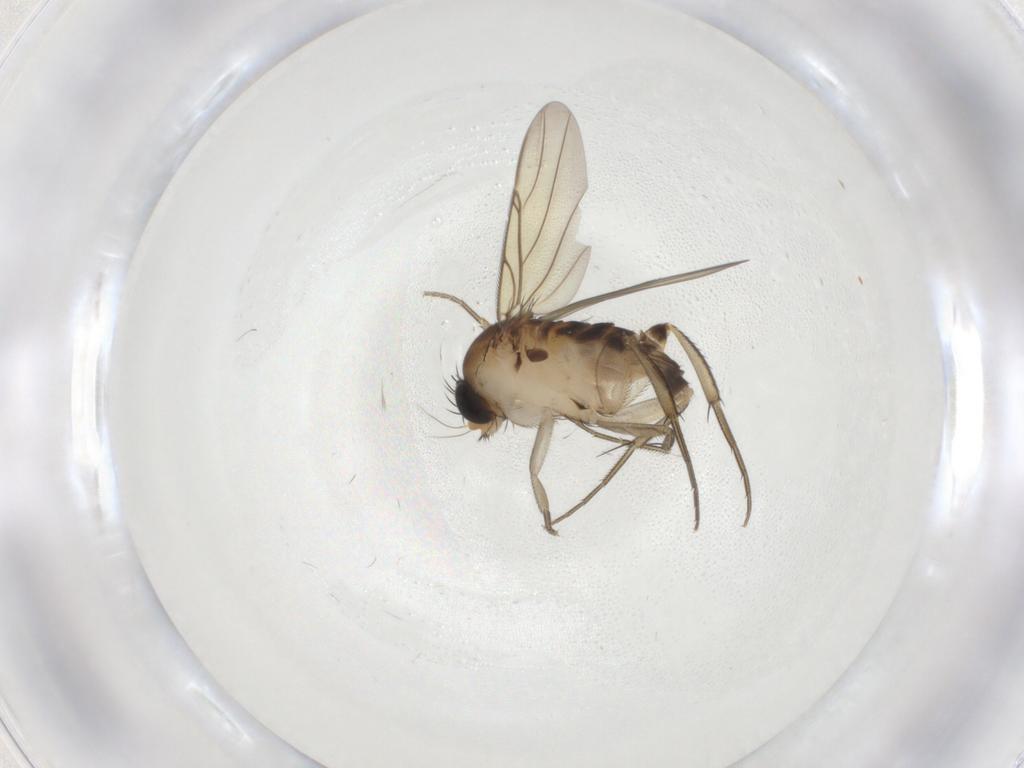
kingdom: Animalia
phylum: Arthropoda
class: Insecta
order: Diptera
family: Phoridae
